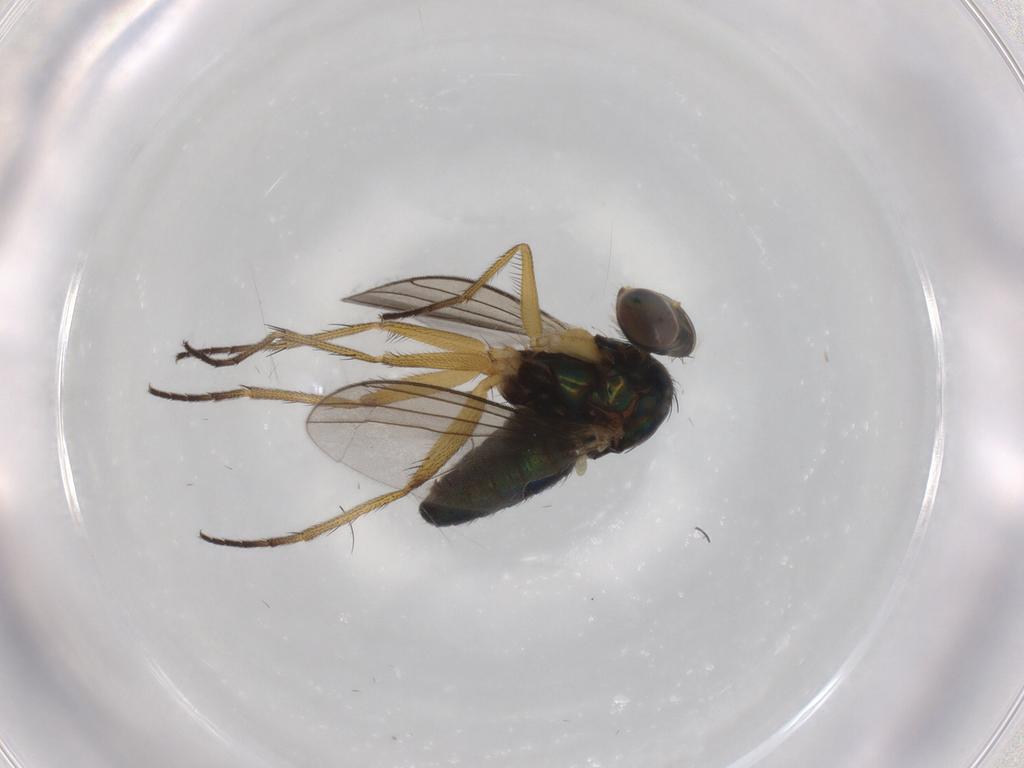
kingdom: Animalia
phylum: Arthropoda
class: Insecta
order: Diptera
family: Dolichopodidae
